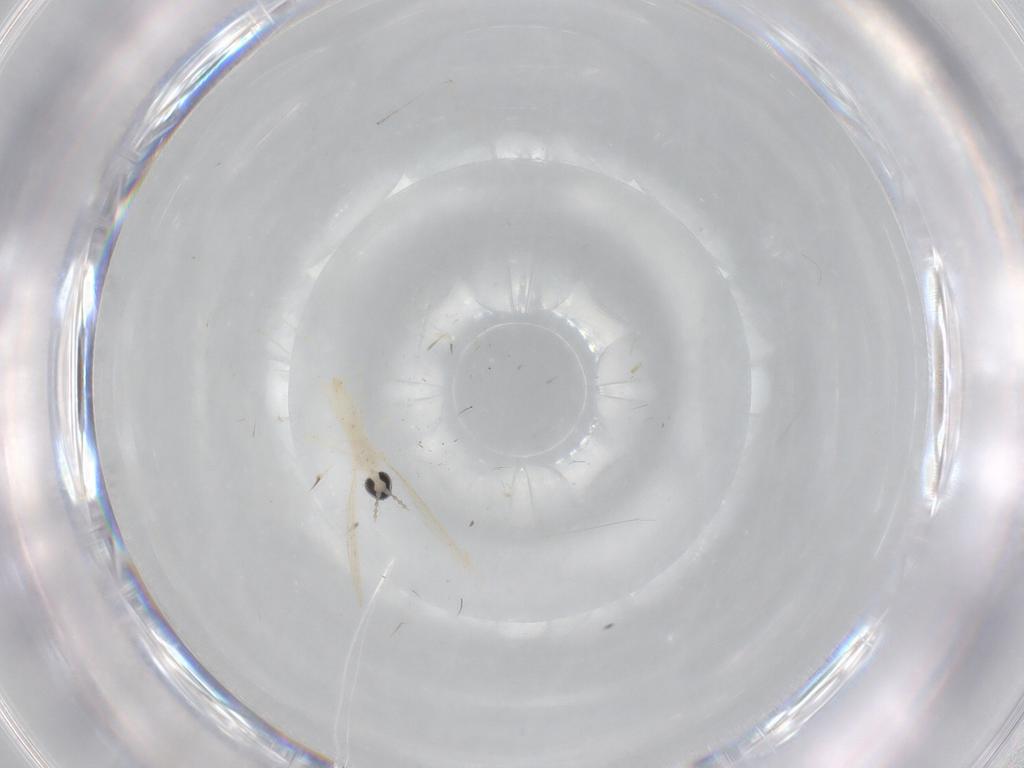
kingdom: Animalia
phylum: Arthropoda
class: Insecta
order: Diptera
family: Cecidomyiidae
